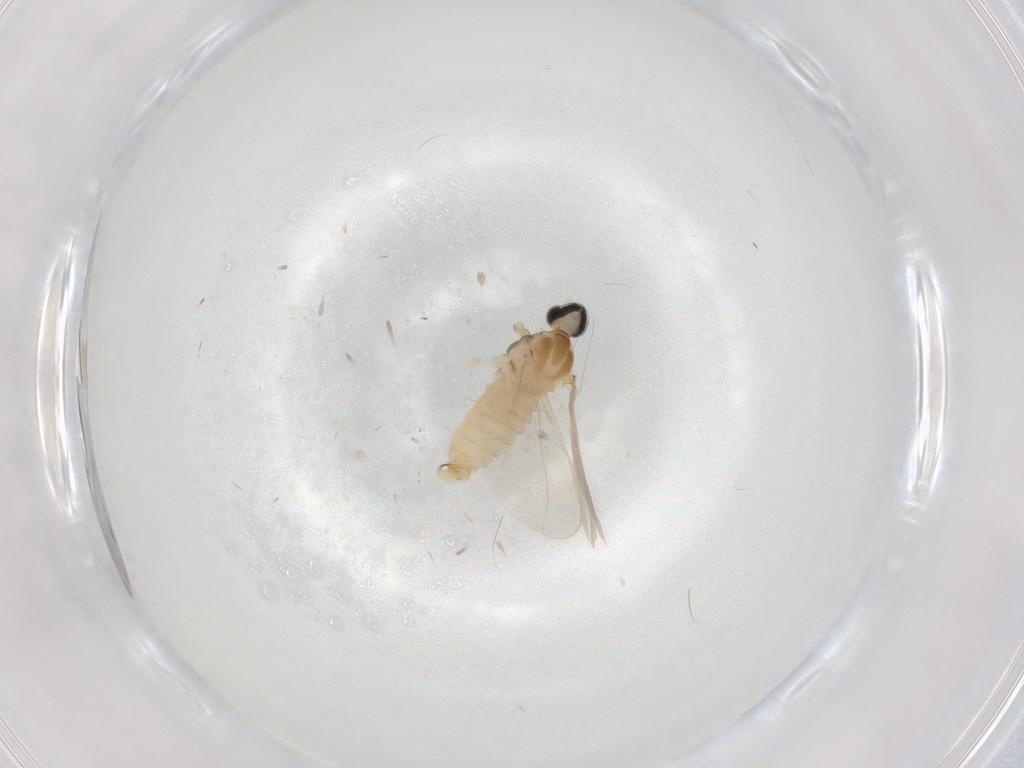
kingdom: Animalia
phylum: Arthropoda
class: Insecta
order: Diptera
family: Cecidomyiidae
